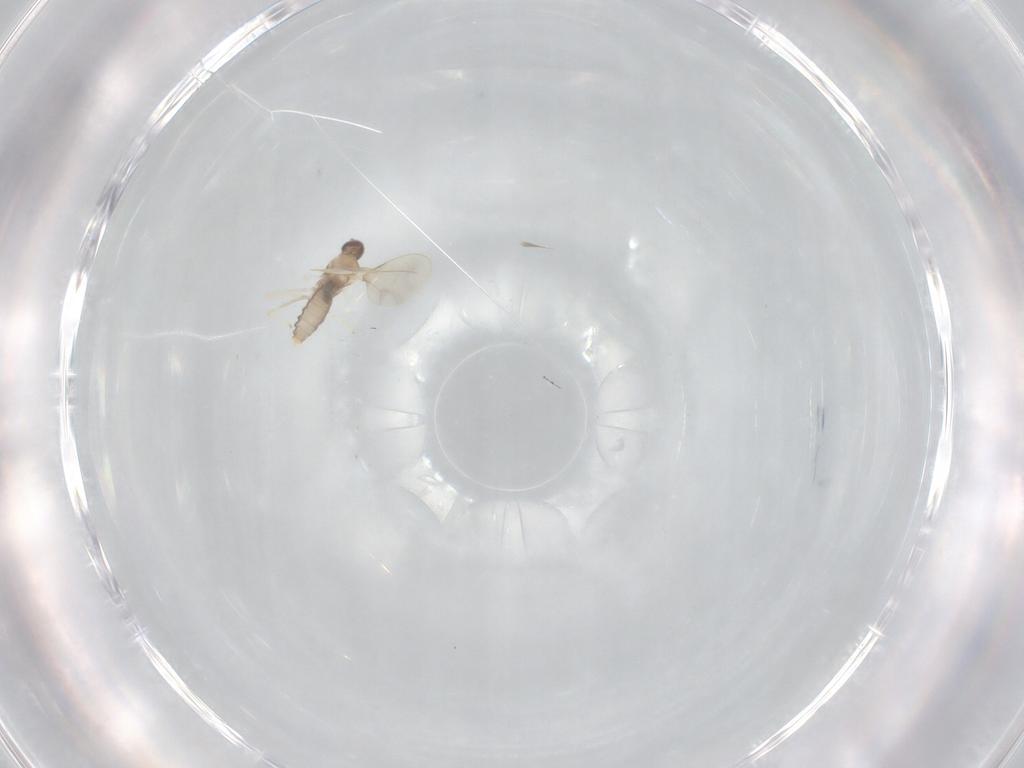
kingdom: Animalia
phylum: Arthropoda
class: Insecta
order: Diptera
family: Cecidomyiidae
